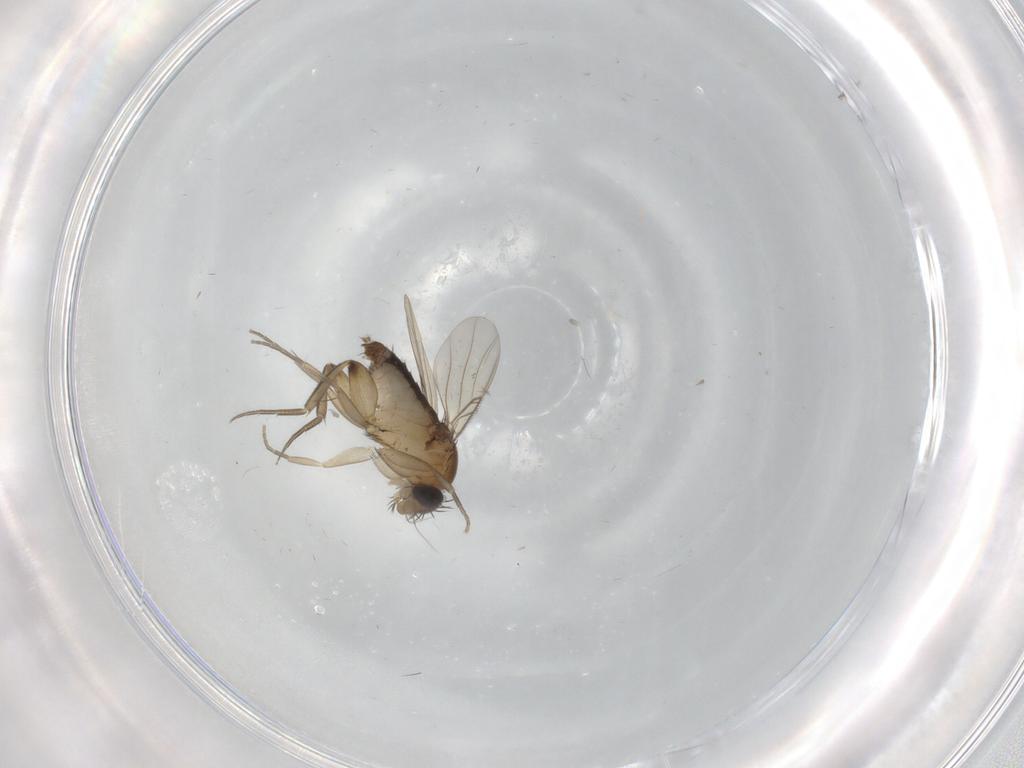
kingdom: Animalia
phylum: Arthropoda
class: Insecta
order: Diptera
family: Phoridae
